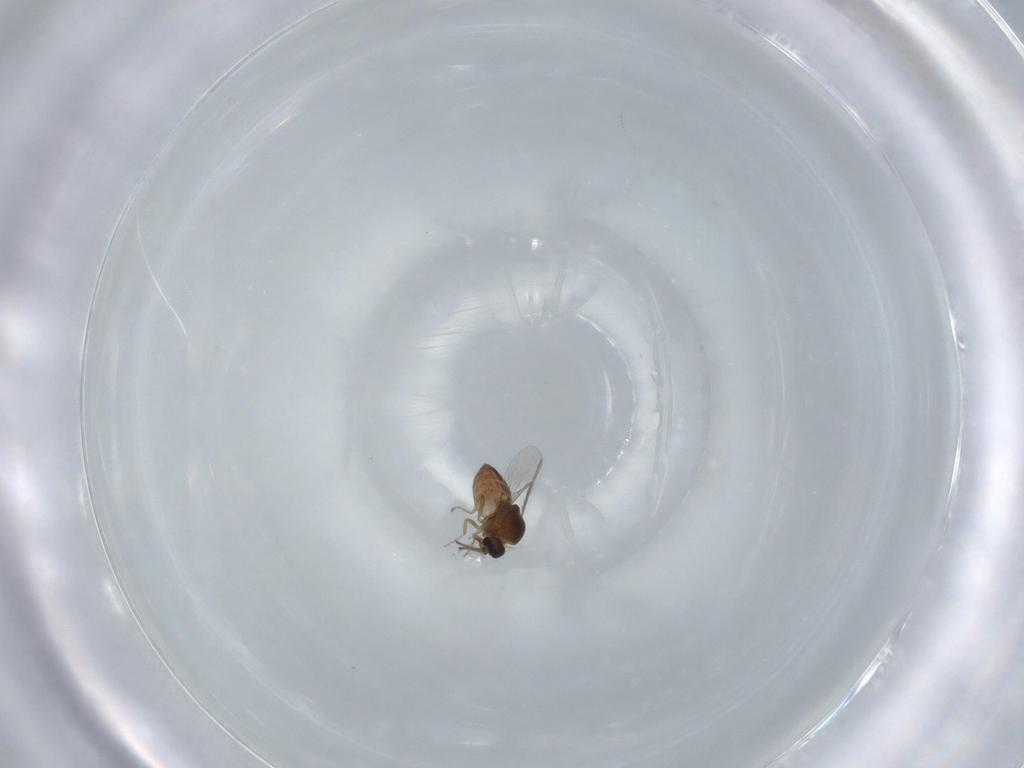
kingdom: Animalia
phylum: Arthropoda
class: Insecta
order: Diptera
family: Ceratopogonidae
